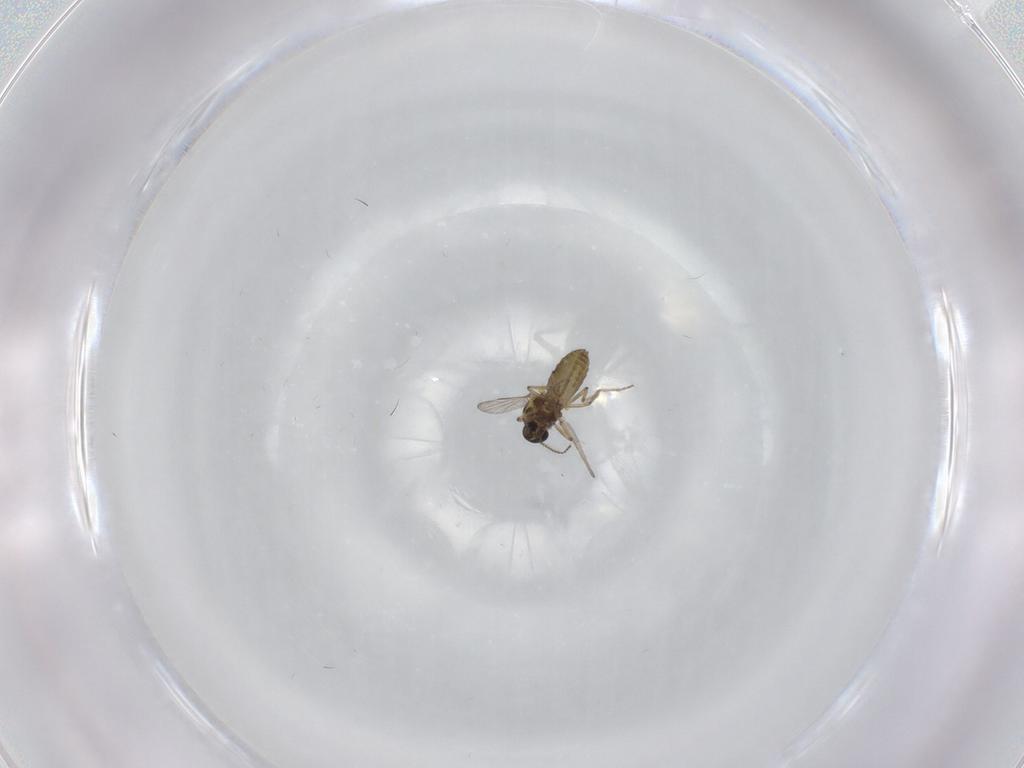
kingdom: Animalia
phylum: Arthropoda
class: Insecta
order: Diptera
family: Ceratopogonidae
